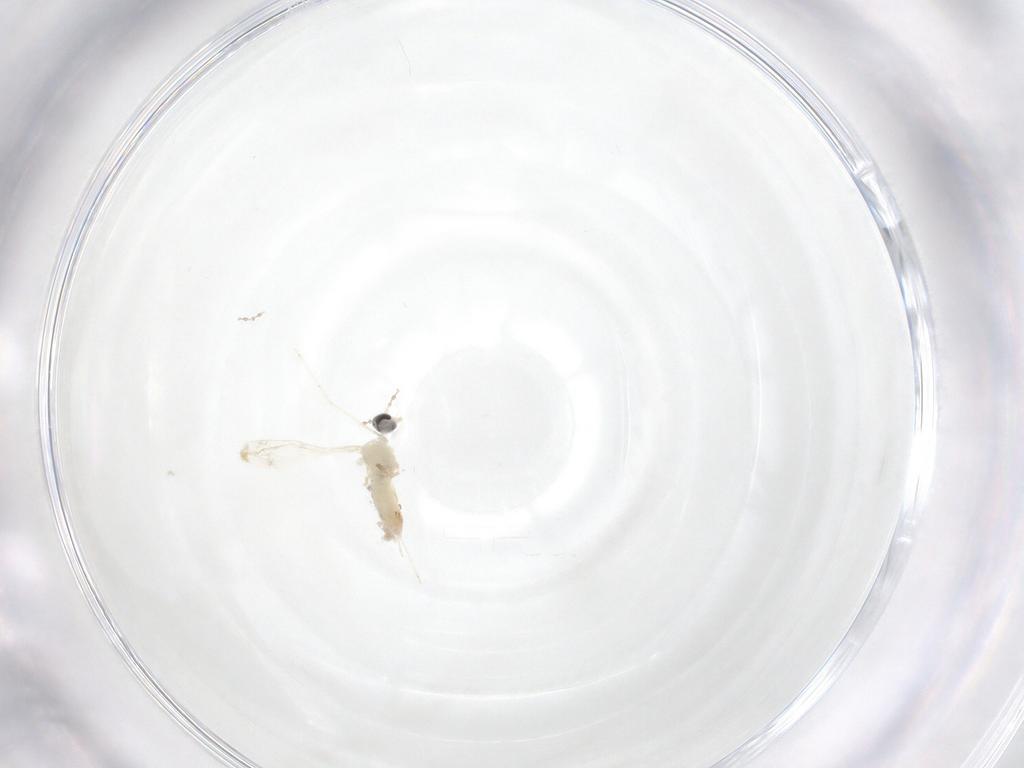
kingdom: Animalia
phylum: Arthropoda
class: Insecta
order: Diptera
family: Cecidomyiidae
